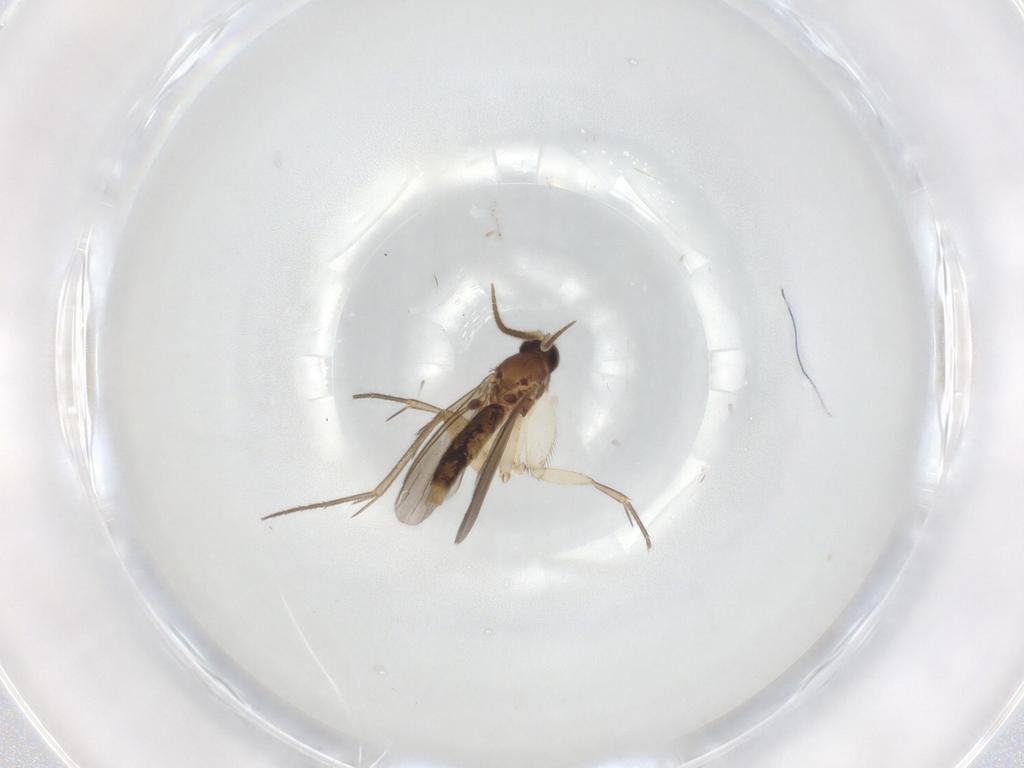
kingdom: Animalia
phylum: Arthropoda
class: Insecta
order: Diptera
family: Mycetophilidae
